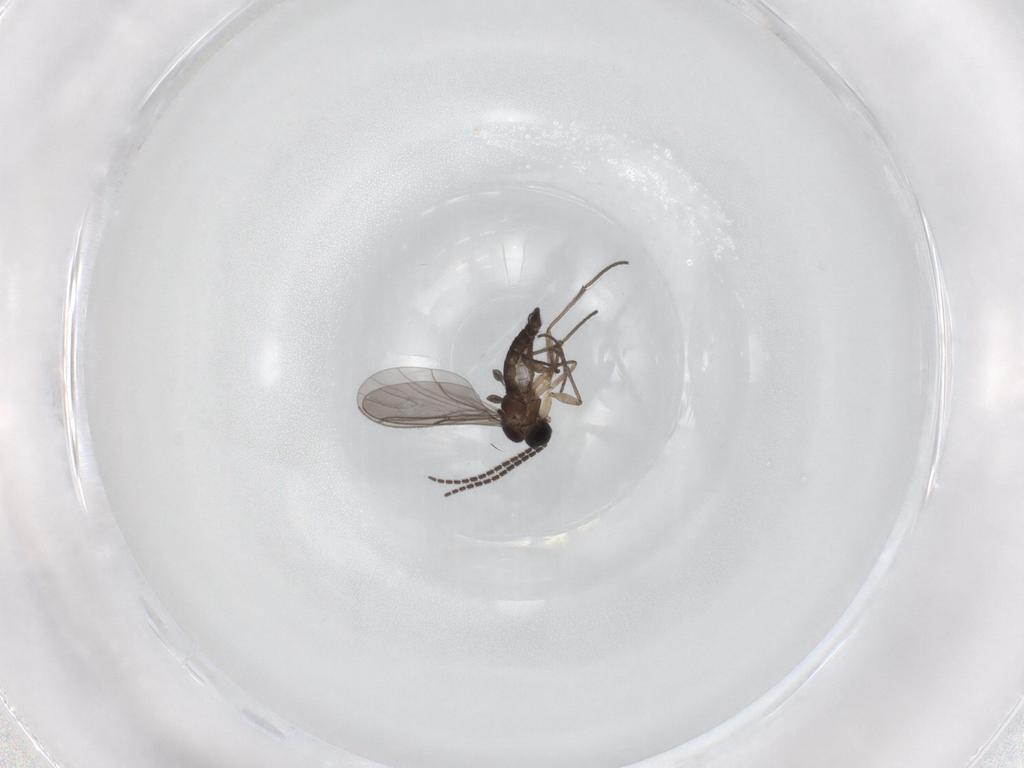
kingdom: Animalia
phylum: Arthropoda
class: Insecta
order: Diptera
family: Sciaridae
